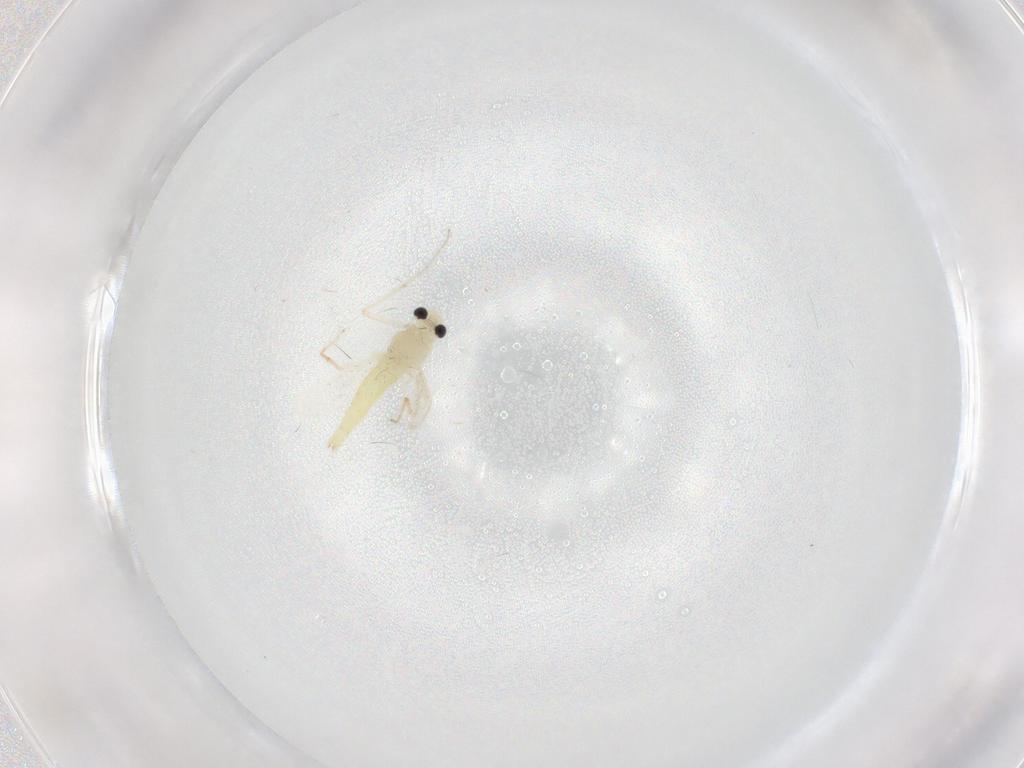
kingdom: Animalia
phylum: Arthropoda
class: Insecta
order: Diptera
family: Chironomidae
